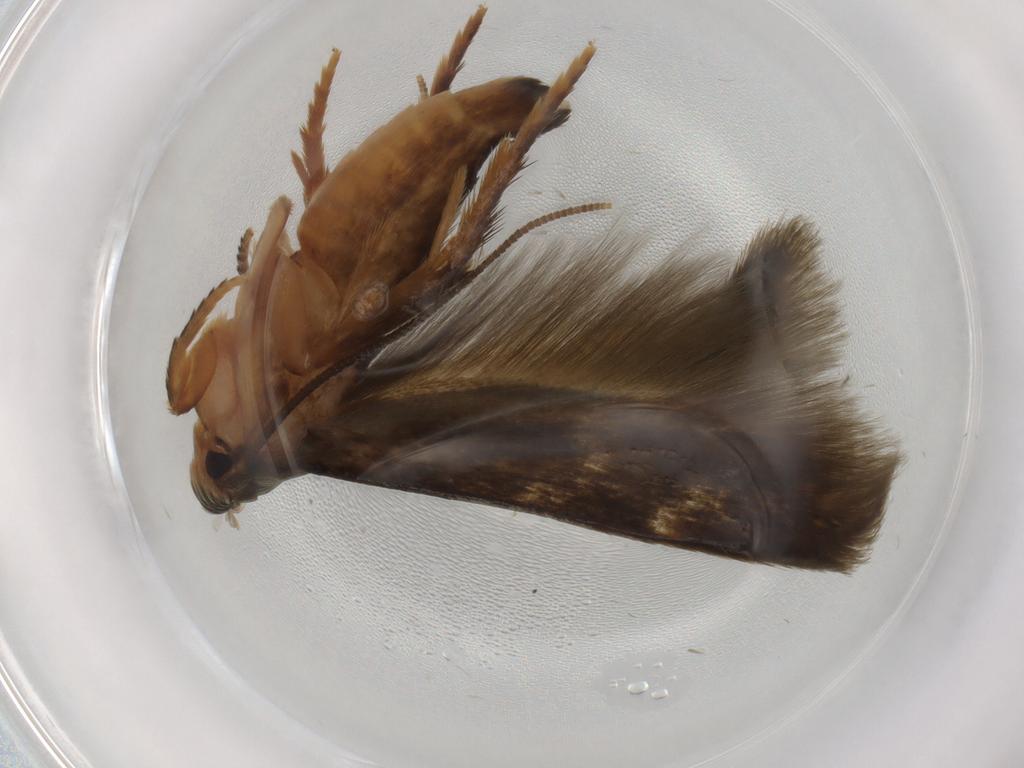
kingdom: Animalia
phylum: Arthropoda
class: Insecta
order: Lepidoptera
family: Tineidae
